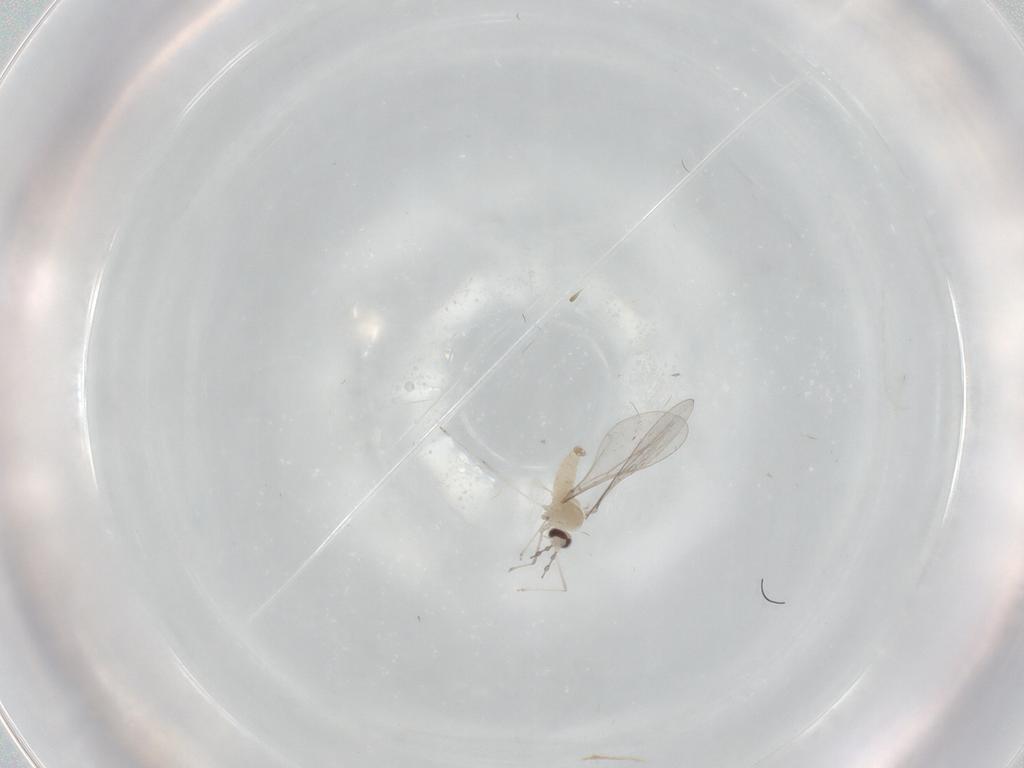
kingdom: Animalia
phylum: Arthropoda
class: Insecta
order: Diptera
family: Cecidomyiidae
